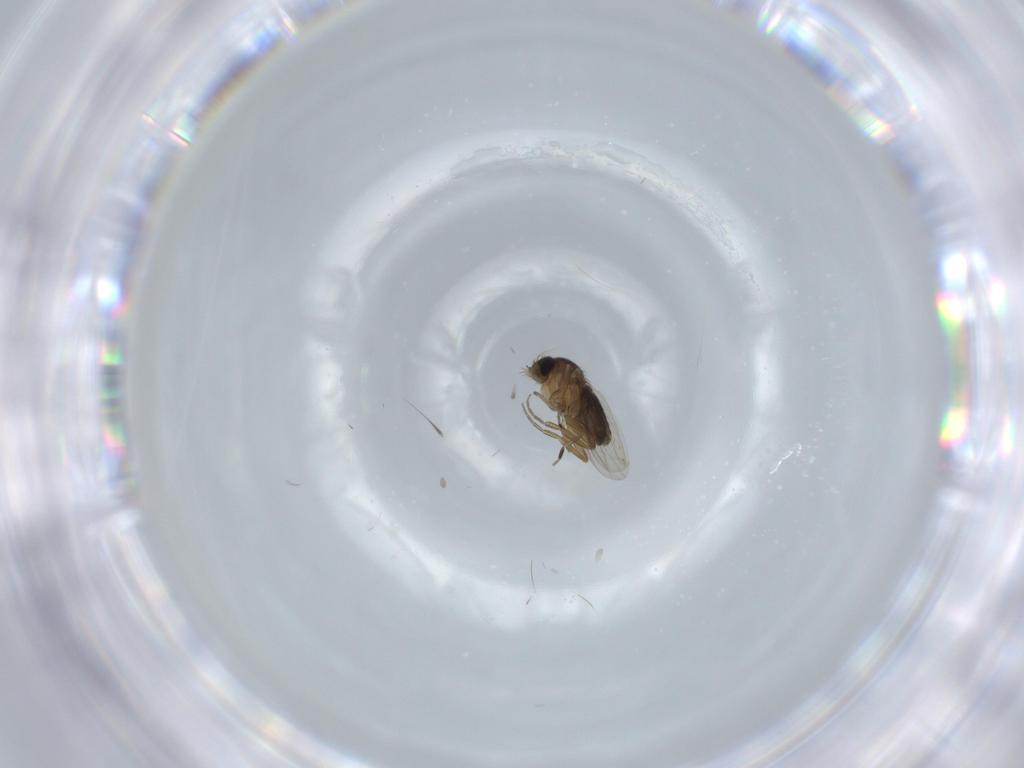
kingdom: Animalia
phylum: Arthropoda
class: Insecta
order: Diptera
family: Phoridae
